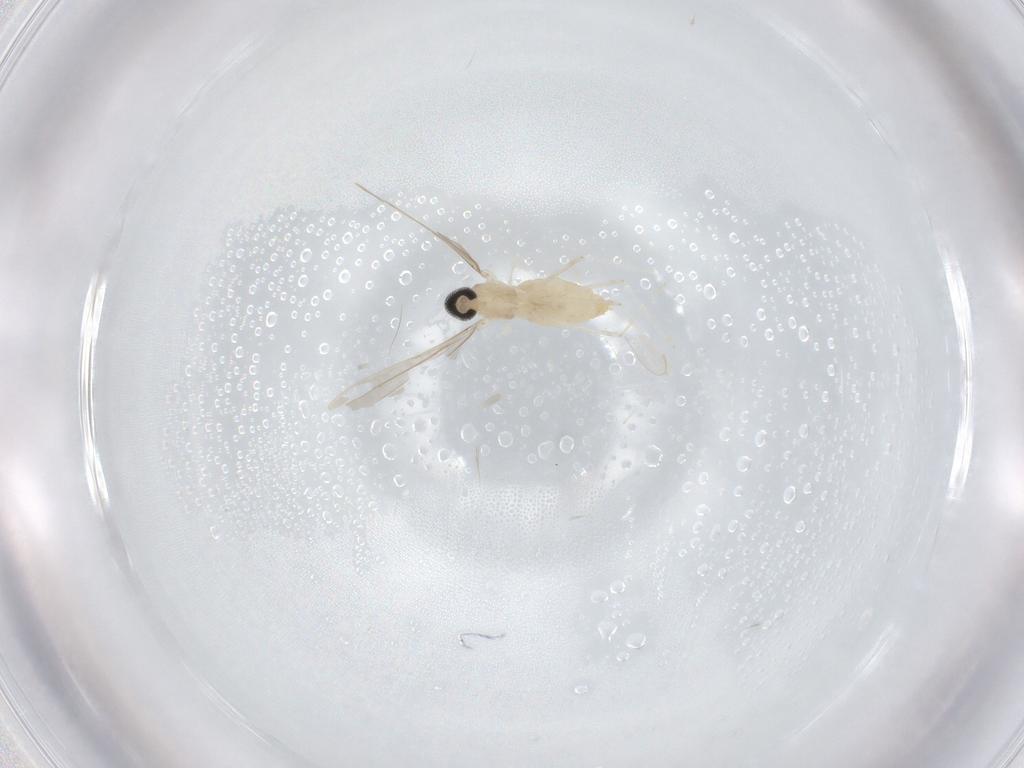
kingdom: Animalia
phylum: Arthropoda
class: Insecta
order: Diptera
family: Cecidomyiidae
